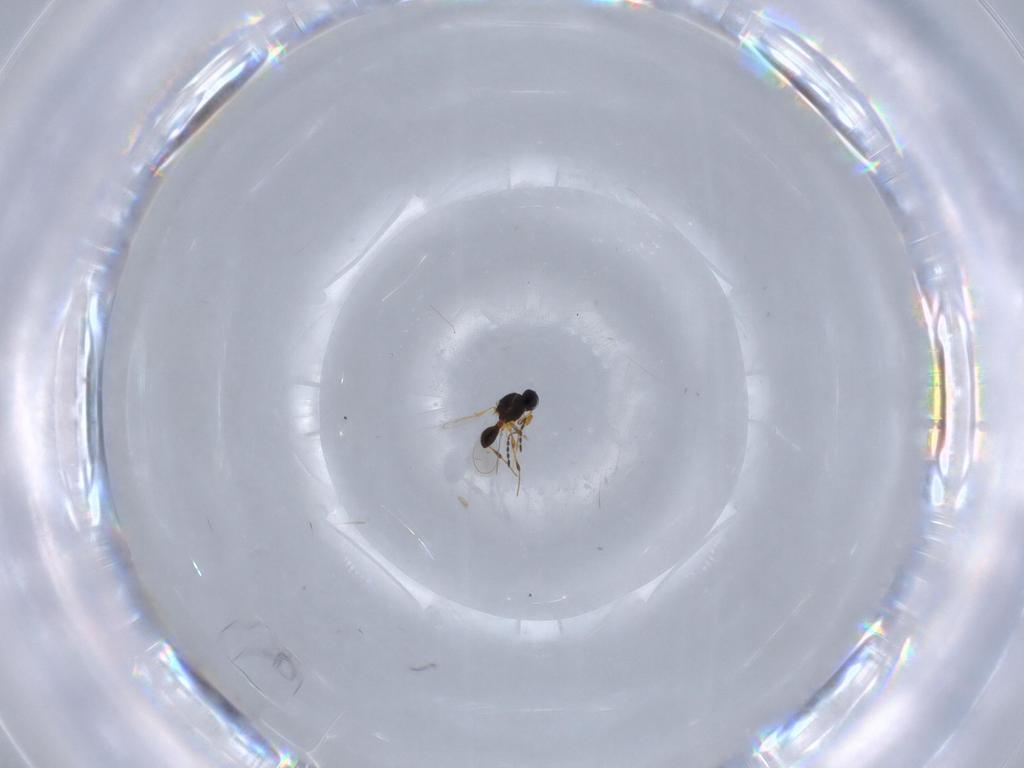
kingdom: Animalia
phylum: Arthropoda
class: Insecta
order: Hymenoptera
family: Platygastridae
